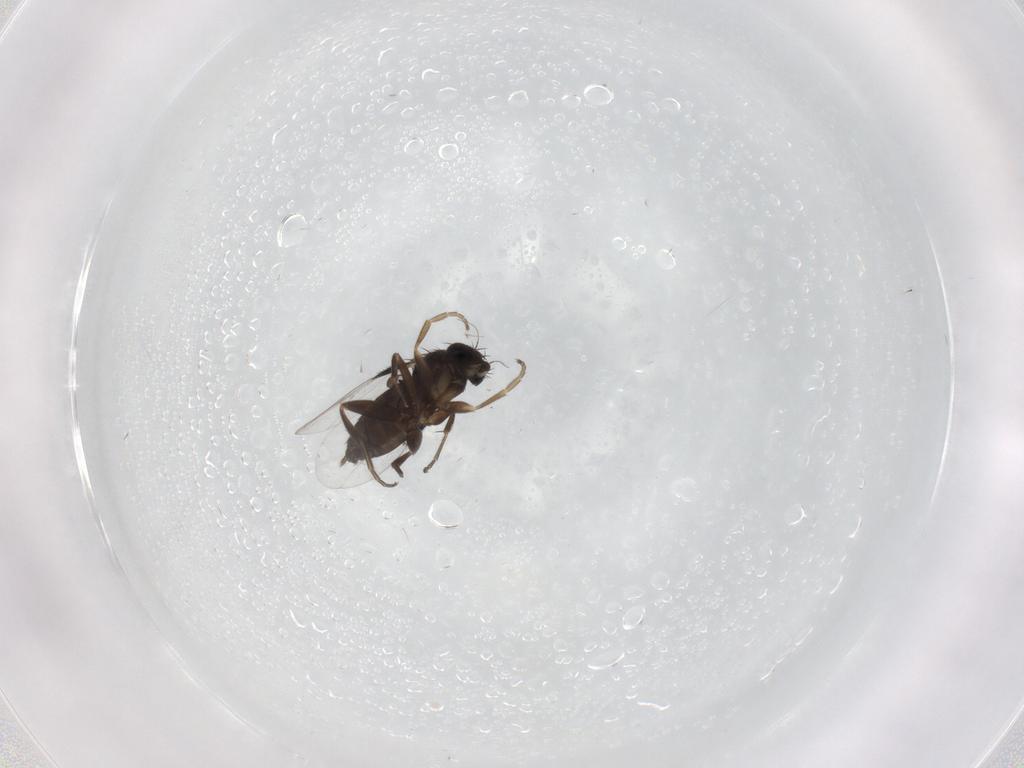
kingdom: Animalia
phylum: Arthropoda
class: Insecta
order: Diptera
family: Phoridae
